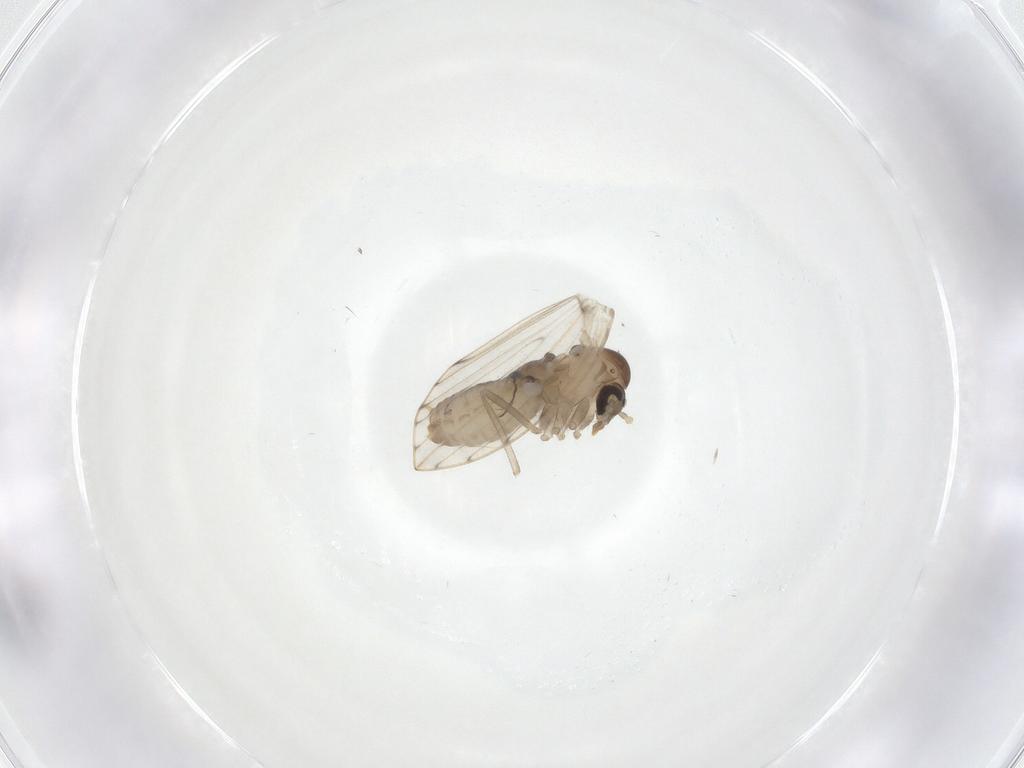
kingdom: Animalia
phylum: Arthropoda
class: Insecta
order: Diptera
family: Psychodidae
